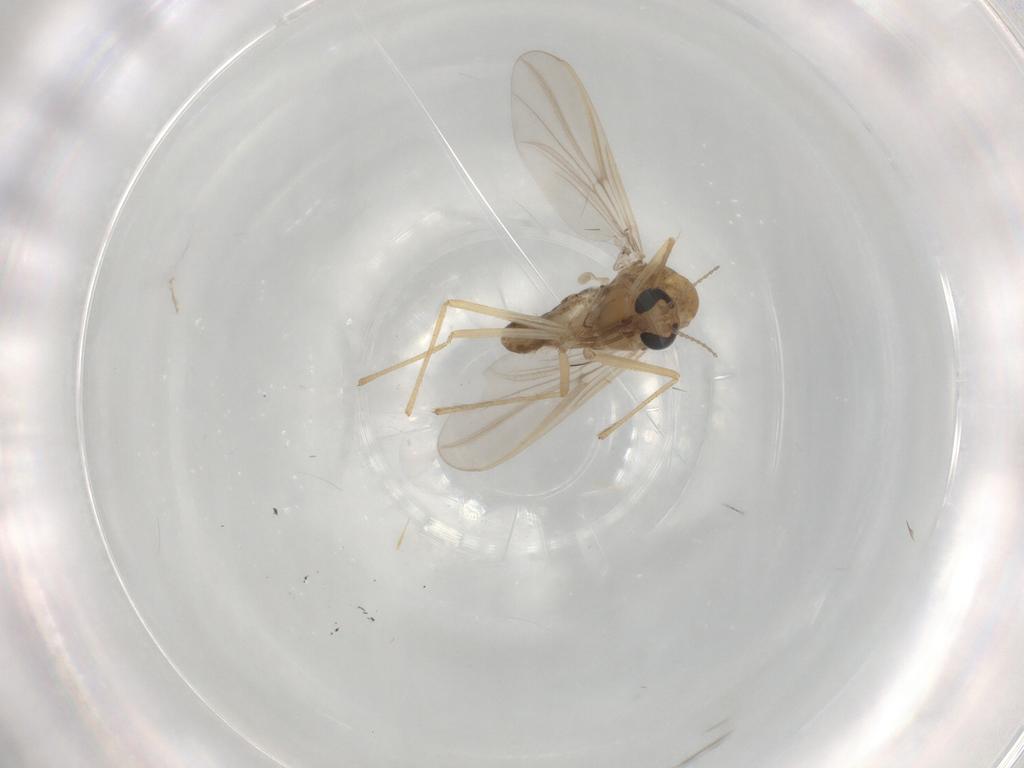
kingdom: Animalia
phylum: Arthropoda
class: Insecta
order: Diptera
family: Chironomidae
